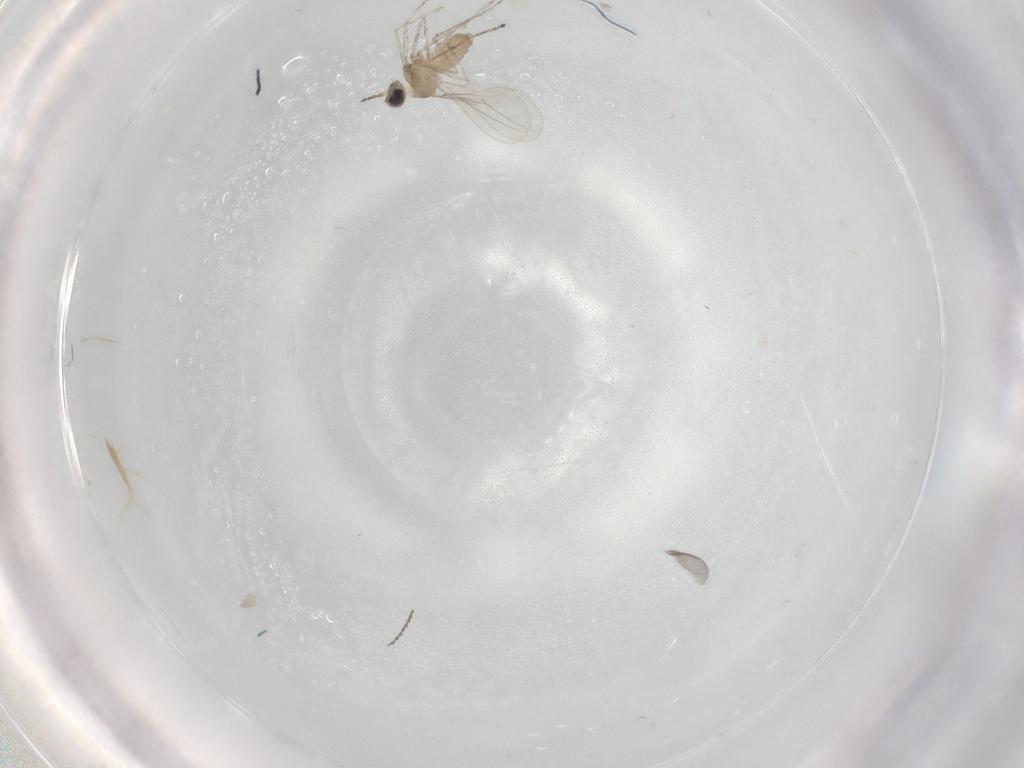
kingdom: Animalia
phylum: Arthropoda
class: Insecta
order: Diptera
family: Cecidomyiidae
